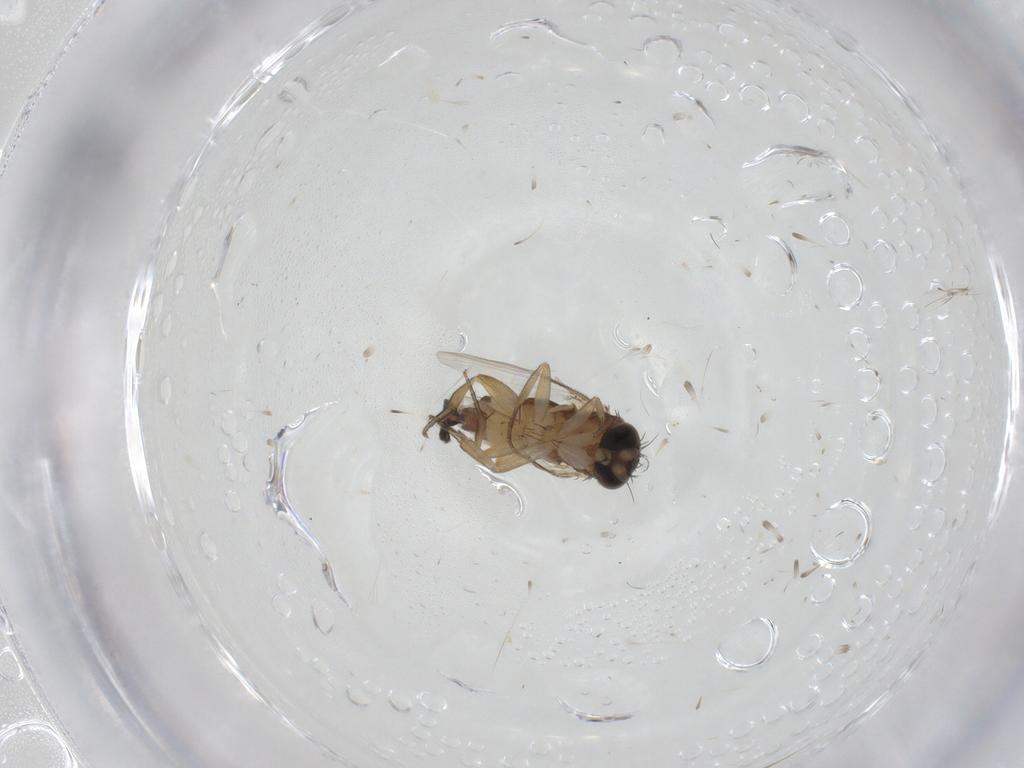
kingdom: Animalia
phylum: Arthropoda
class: Insecta
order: Diptera
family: Phoridae
